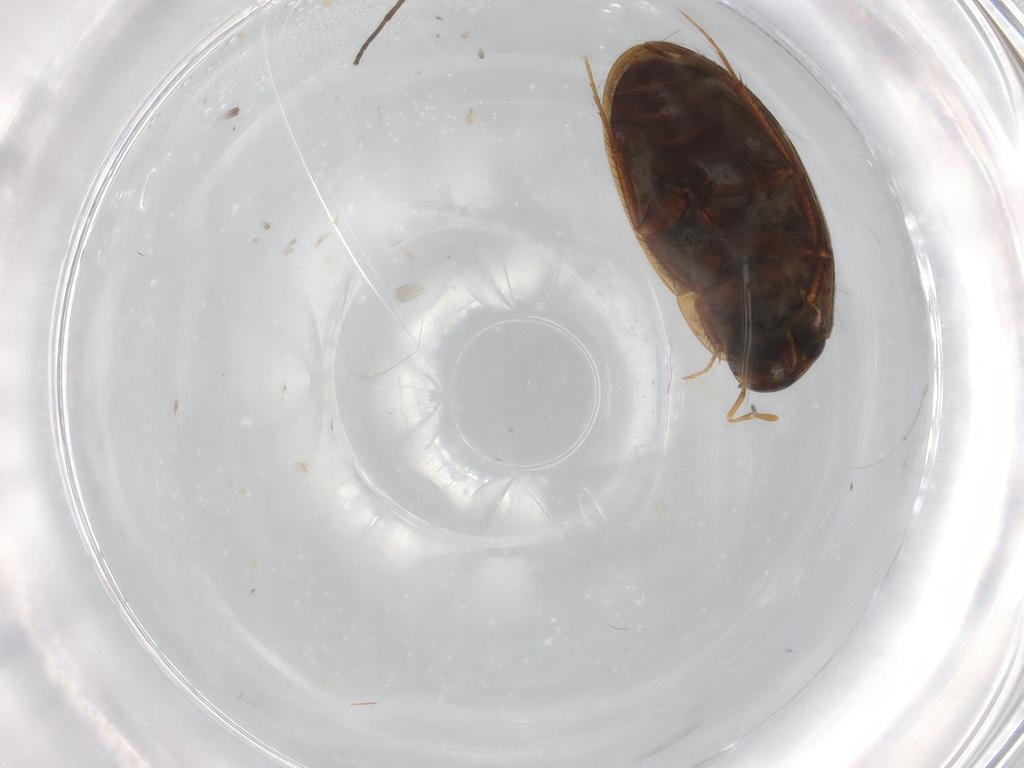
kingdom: Animalia
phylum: Arthropoda
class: Insecta
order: Coleoptera
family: Staphylinidae
